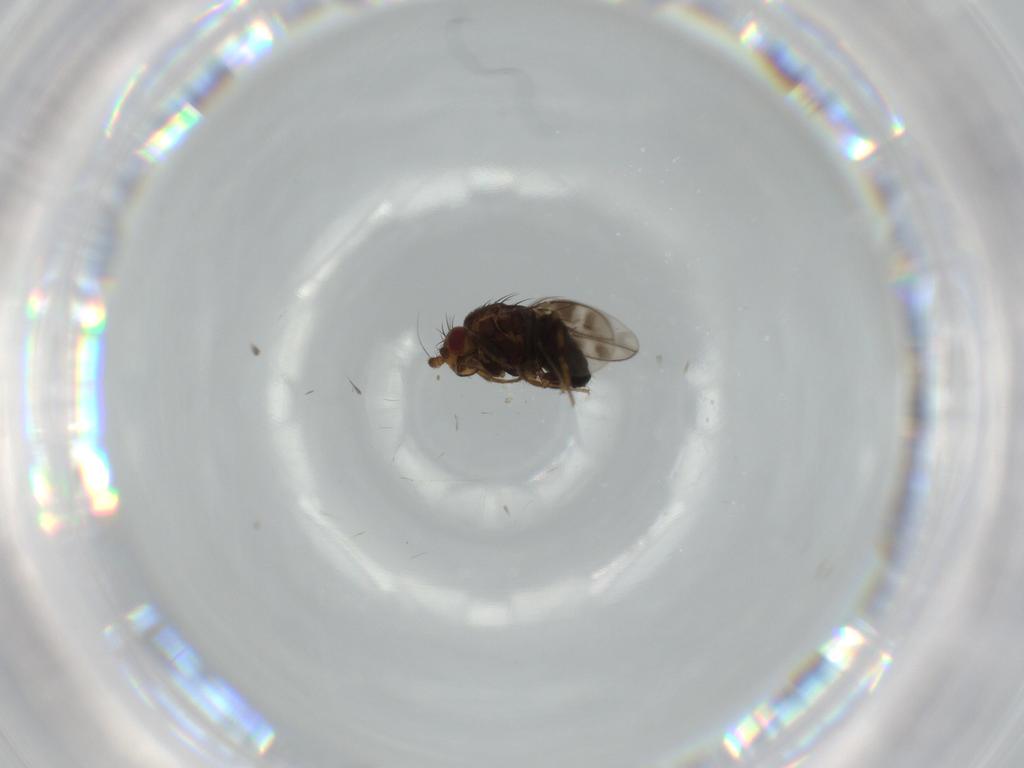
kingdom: Animalia
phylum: Arthropoda
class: Insecta
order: Diptera
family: Sphaeroceridae
